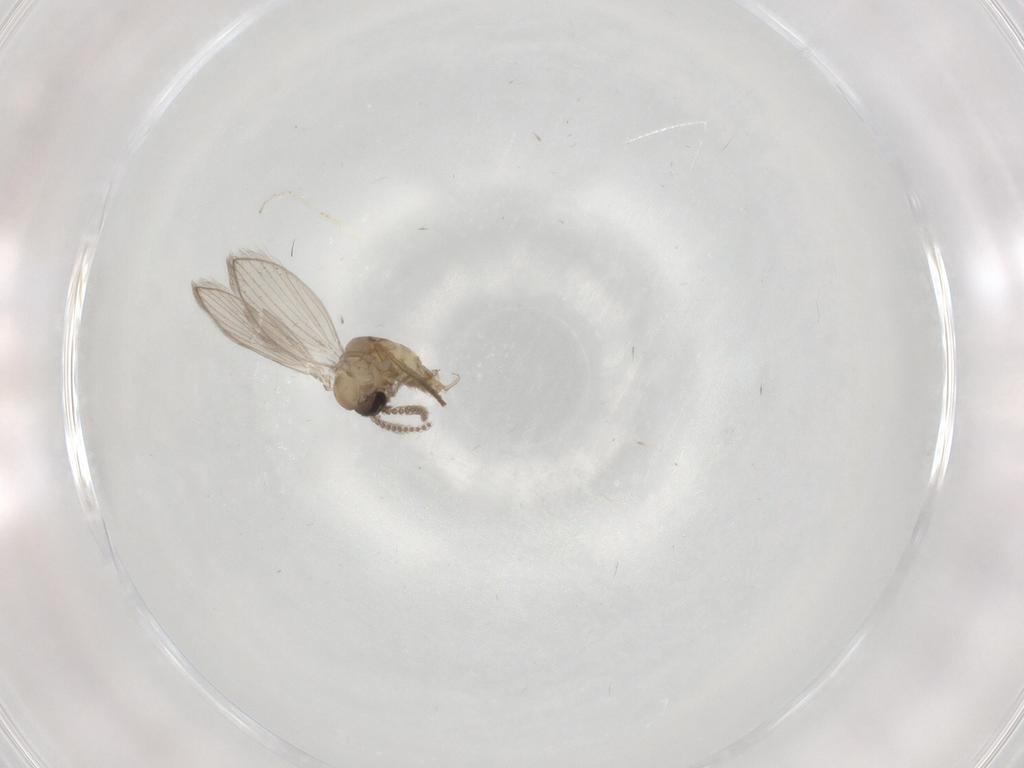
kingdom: Animalia
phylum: Arthropoda
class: Insecta
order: Diptera
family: Psychodidae
